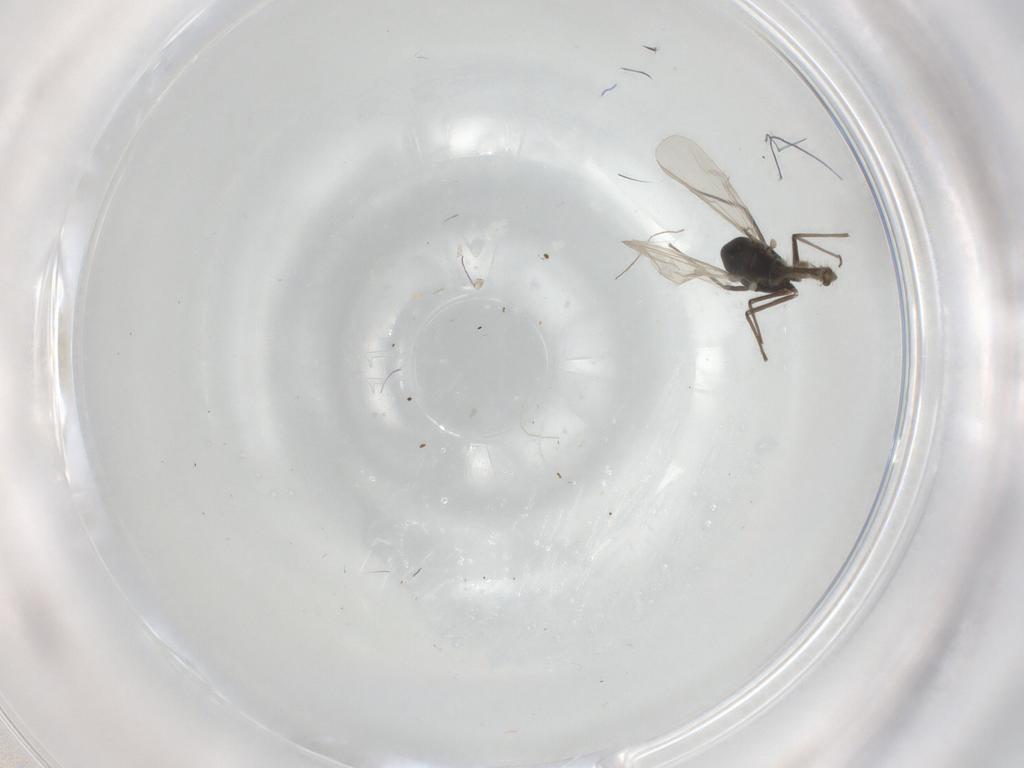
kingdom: Animalia
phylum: Arthropoda
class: Insecta
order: Diptera
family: Chironomidae
